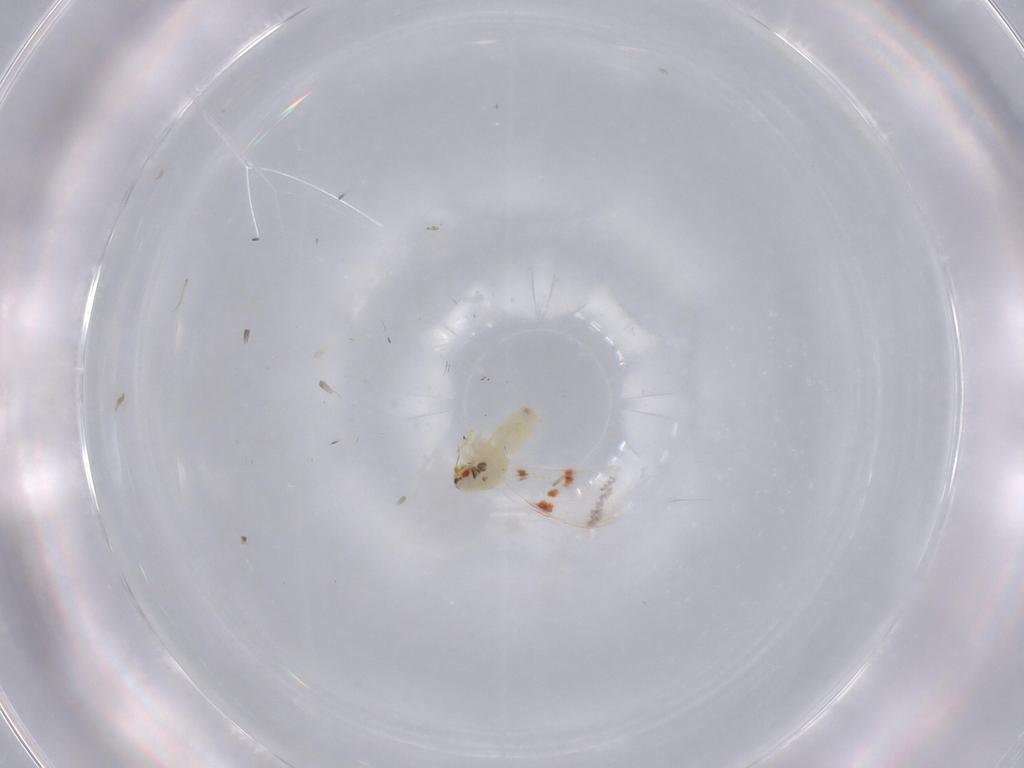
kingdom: Animalia
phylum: Arthropoda
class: Insecta
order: Hemiptera
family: Aleyrodidae
